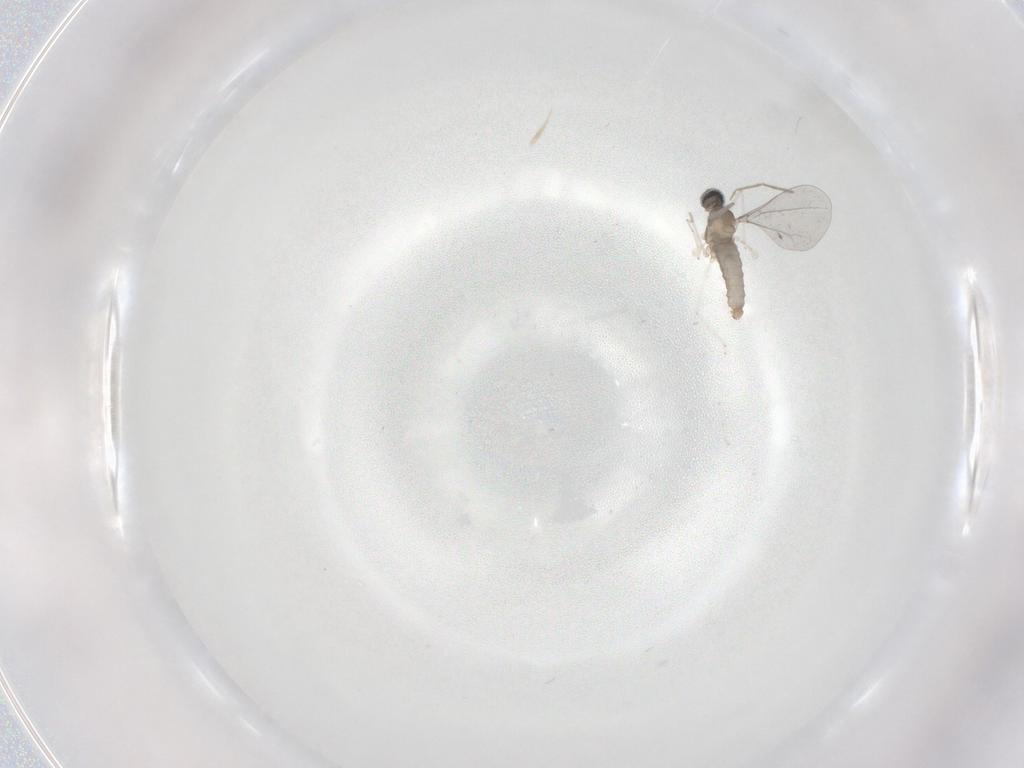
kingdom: Animalia
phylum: Arthropoda
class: Insecta
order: Diptera
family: Cecidomyiidae
